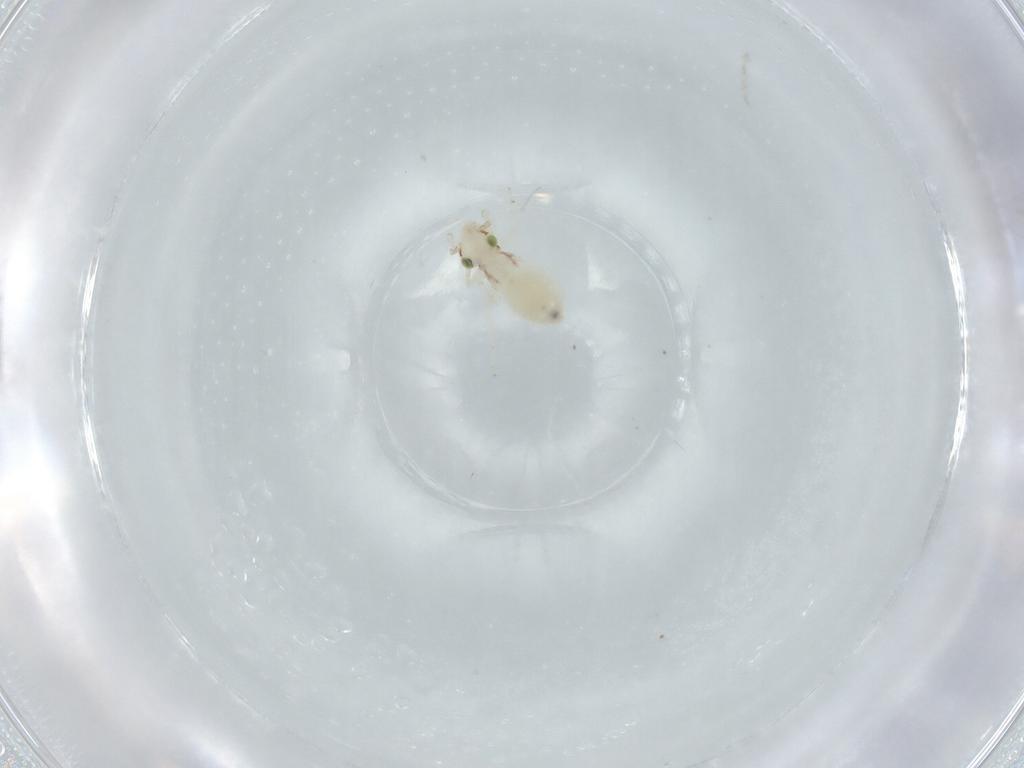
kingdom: Animalia
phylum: Arthropoda
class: Insecta
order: Psocodea
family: Lepidopsocidae
